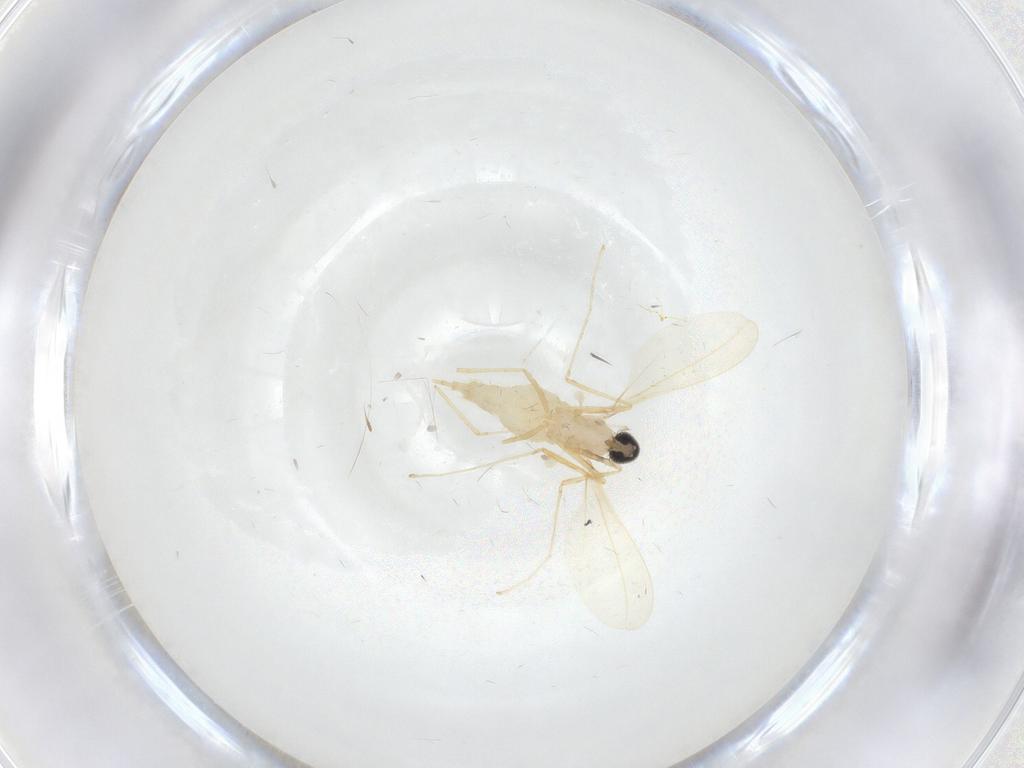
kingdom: Animalia
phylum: Arthropoda
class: Insecta
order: Diptera
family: Cecidomyiidae
